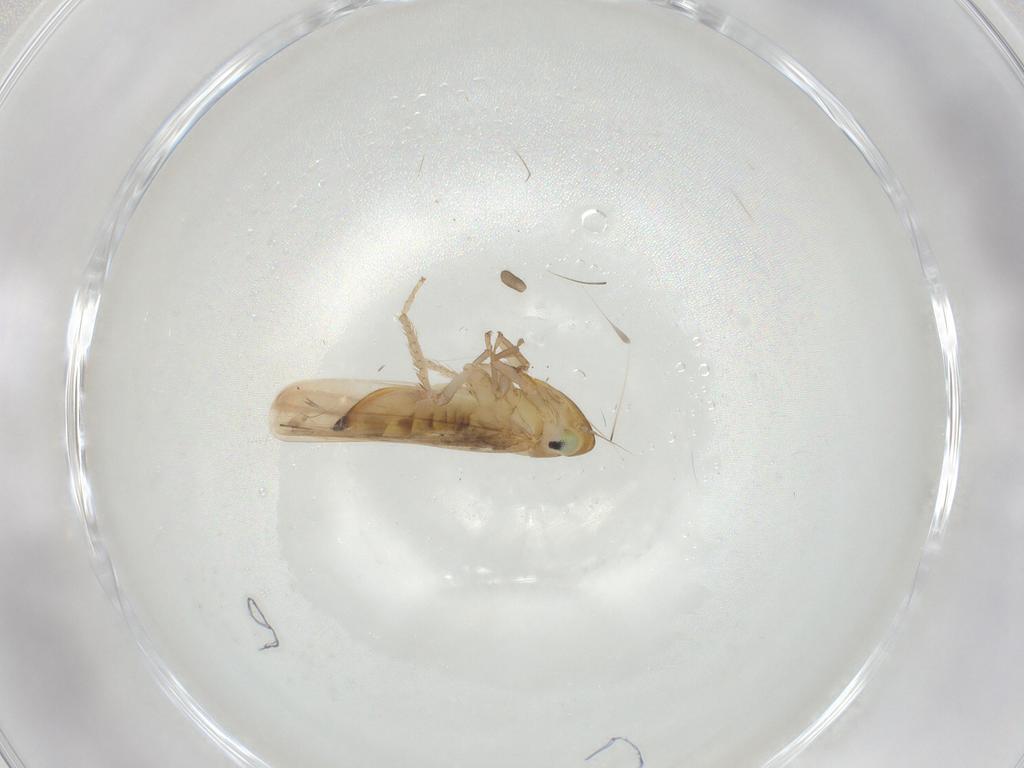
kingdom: Animalia
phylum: Arthropoda
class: Insecta
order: Hemiptera
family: Cicadellidae
